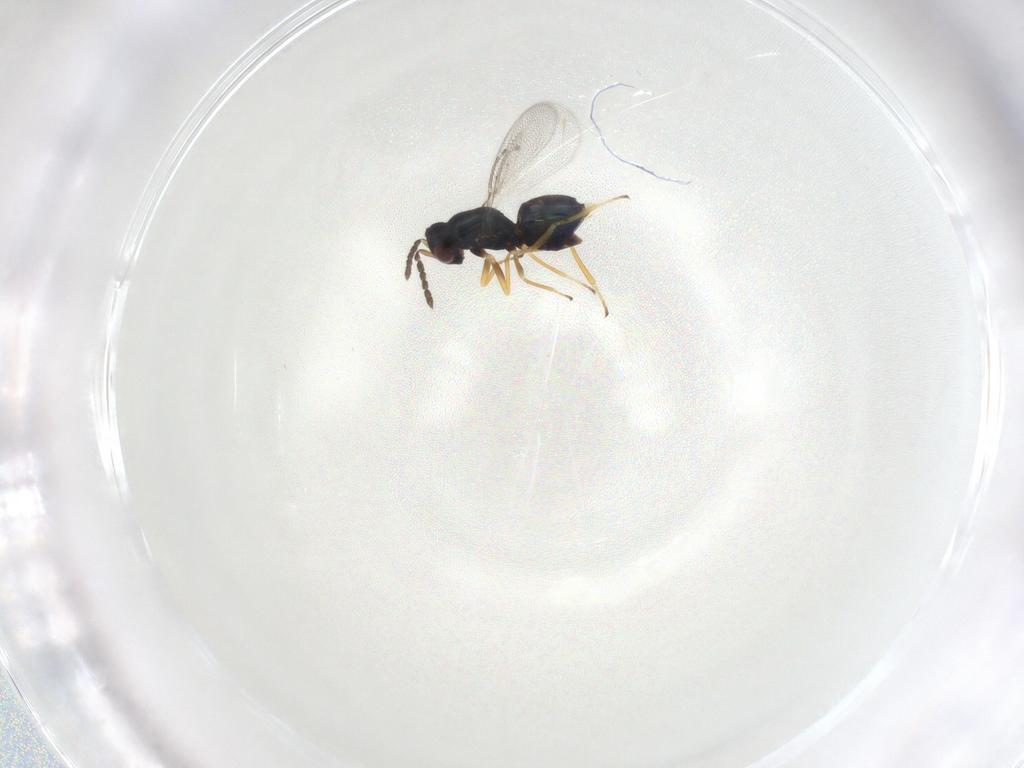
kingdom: Animalia
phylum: Arthropoda
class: Insecta
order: Hymenoptera
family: Eulophidae
